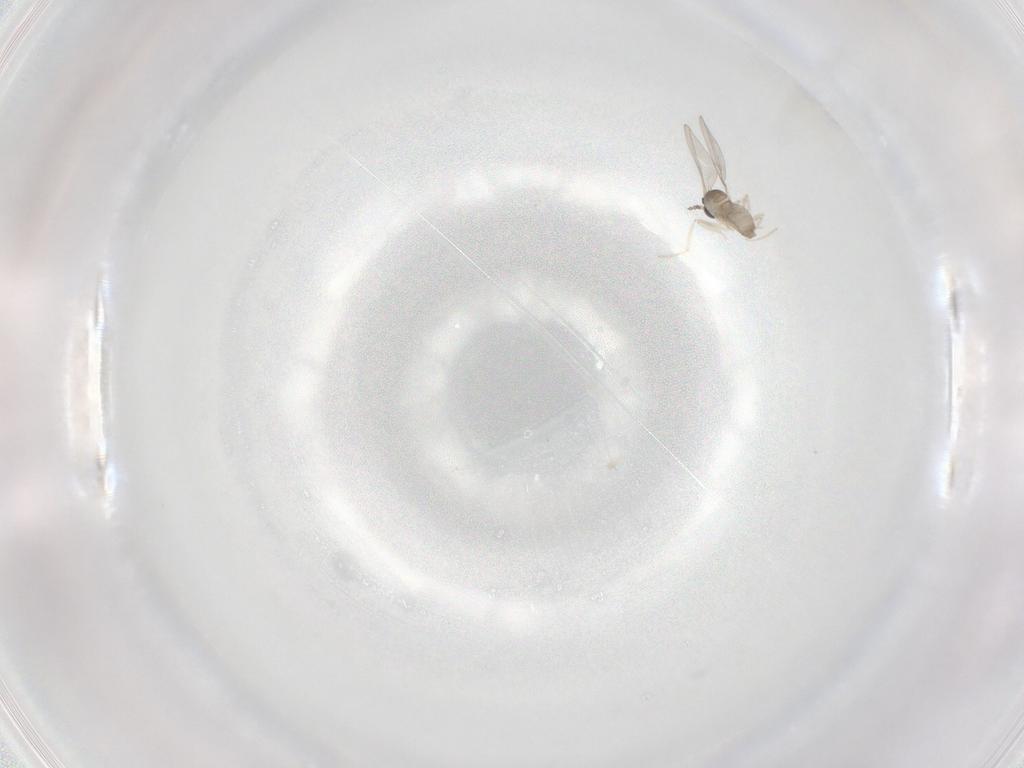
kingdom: Animalia
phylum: Arthropoda
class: Insecta
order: Diptera
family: Cecidomyiidae
